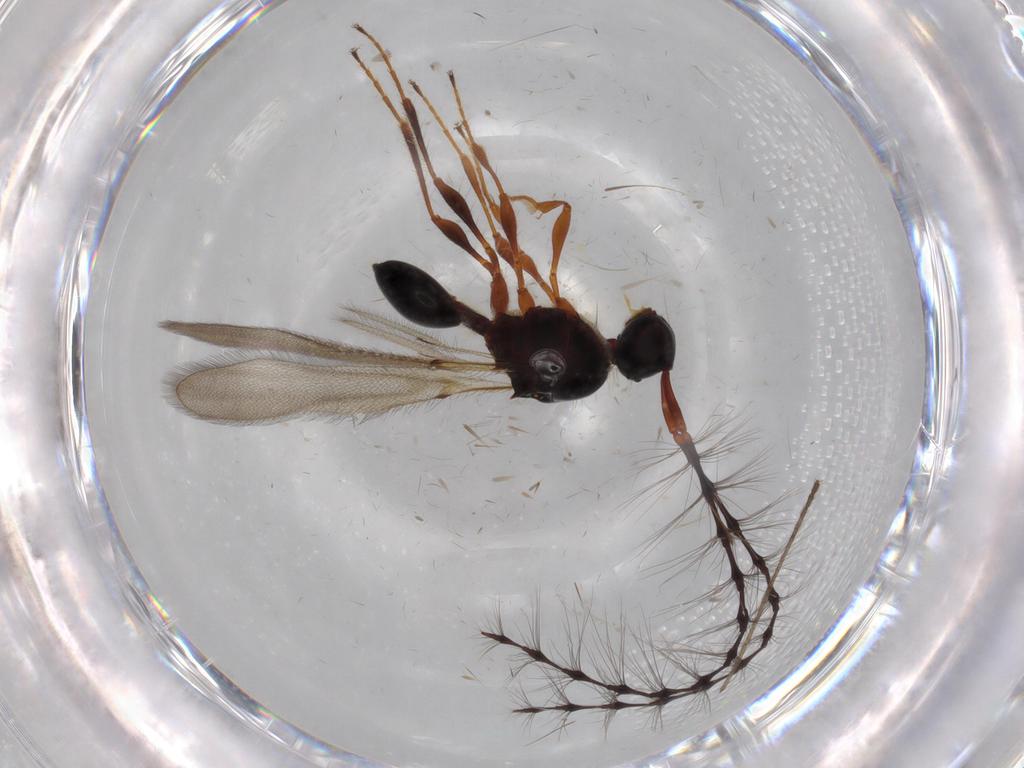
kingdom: Animalia
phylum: Arthropoda
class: Insecta
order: Hymenoptera
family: Diapriidae
